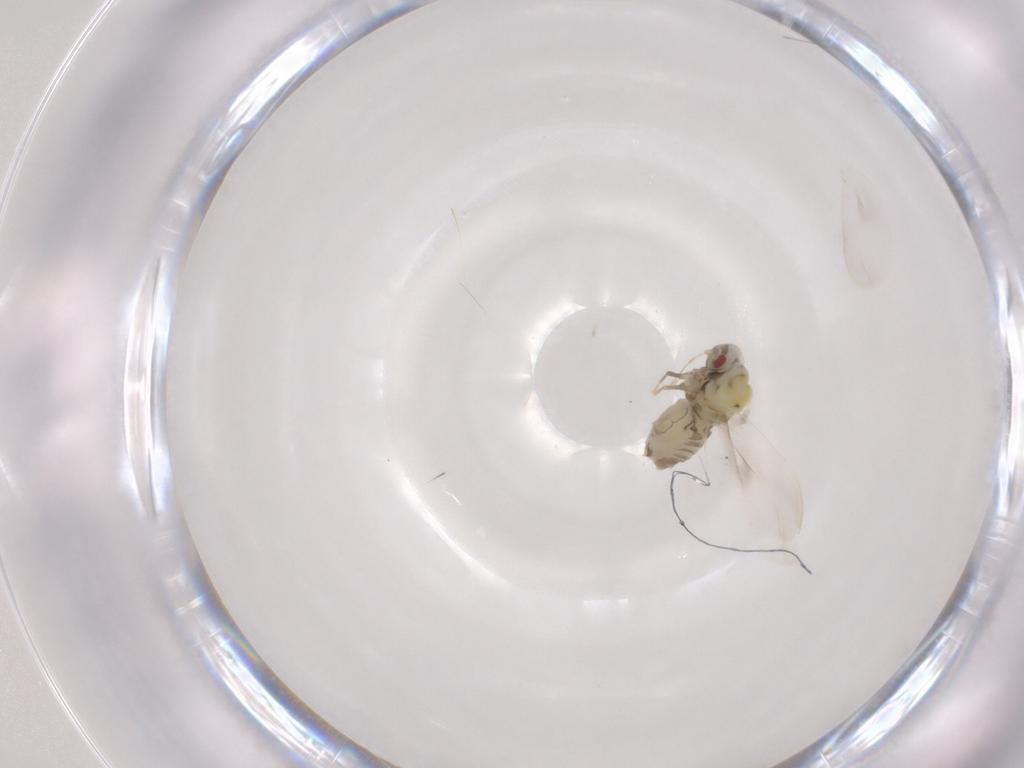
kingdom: Animalia
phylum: Arthropoda
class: Insecta
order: Hemiptera
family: Aleyrodidae
